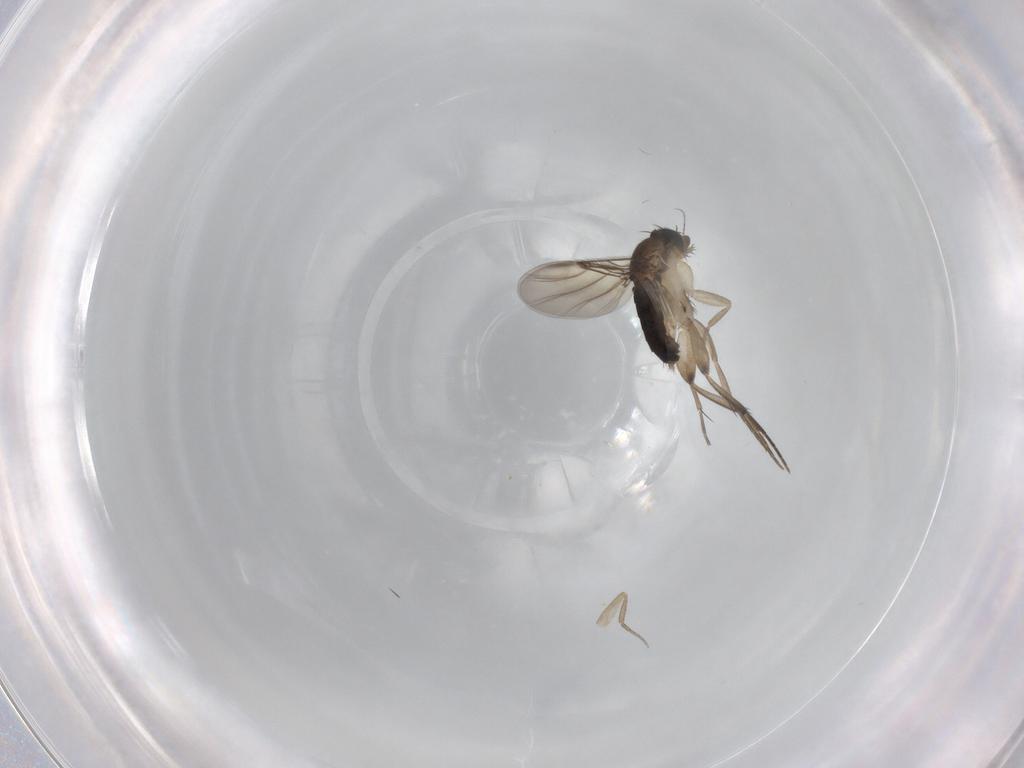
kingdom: Animalia
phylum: Arthropoda
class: Insecta
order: Diptera
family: Phoridae
